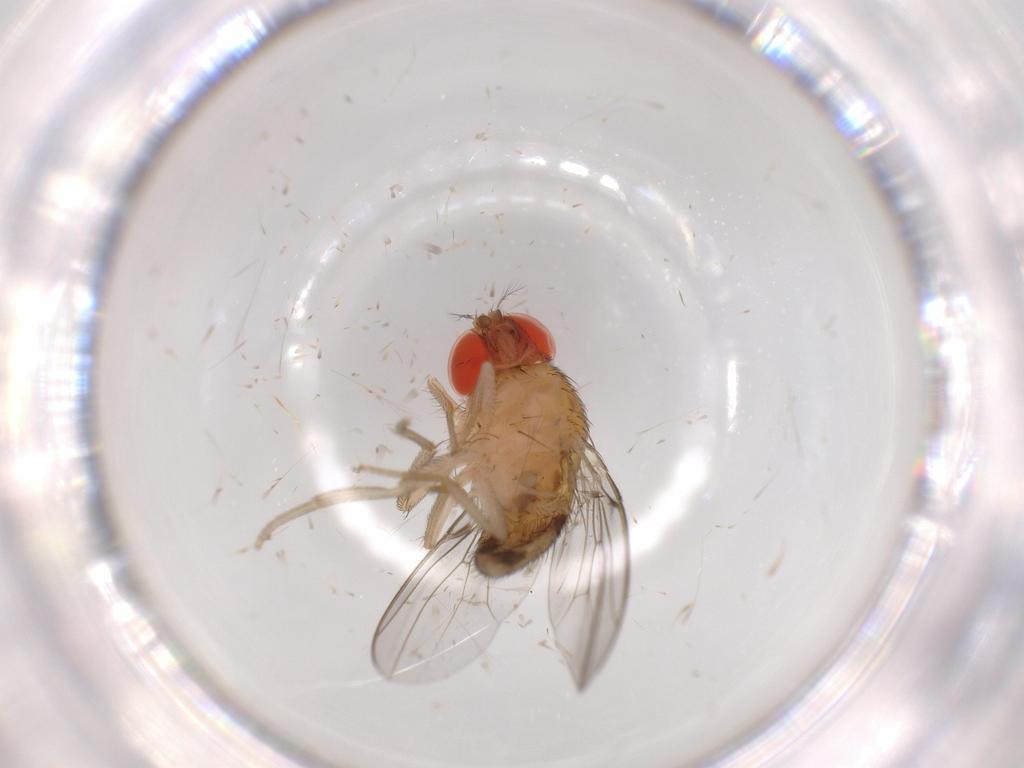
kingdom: Animalia
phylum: Arthropoda
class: Insecta
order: Diptera
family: Drosophilidae
